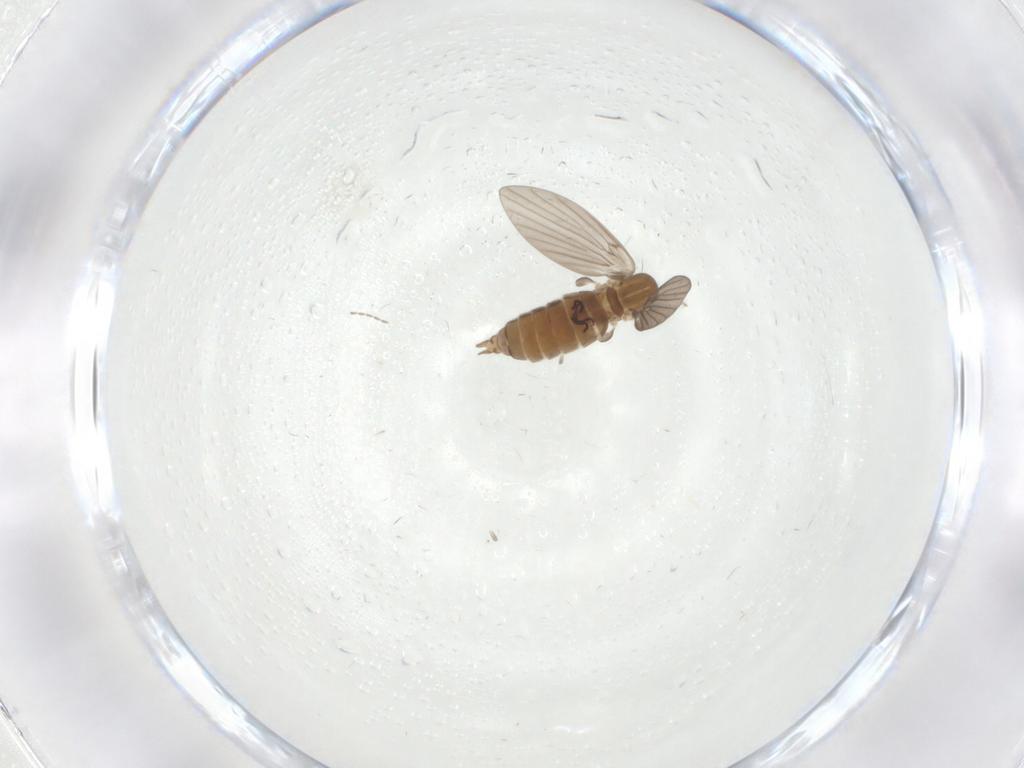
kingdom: Animalia
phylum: Arthropoda
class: Insecta
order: Diptera
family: Chironomidae
